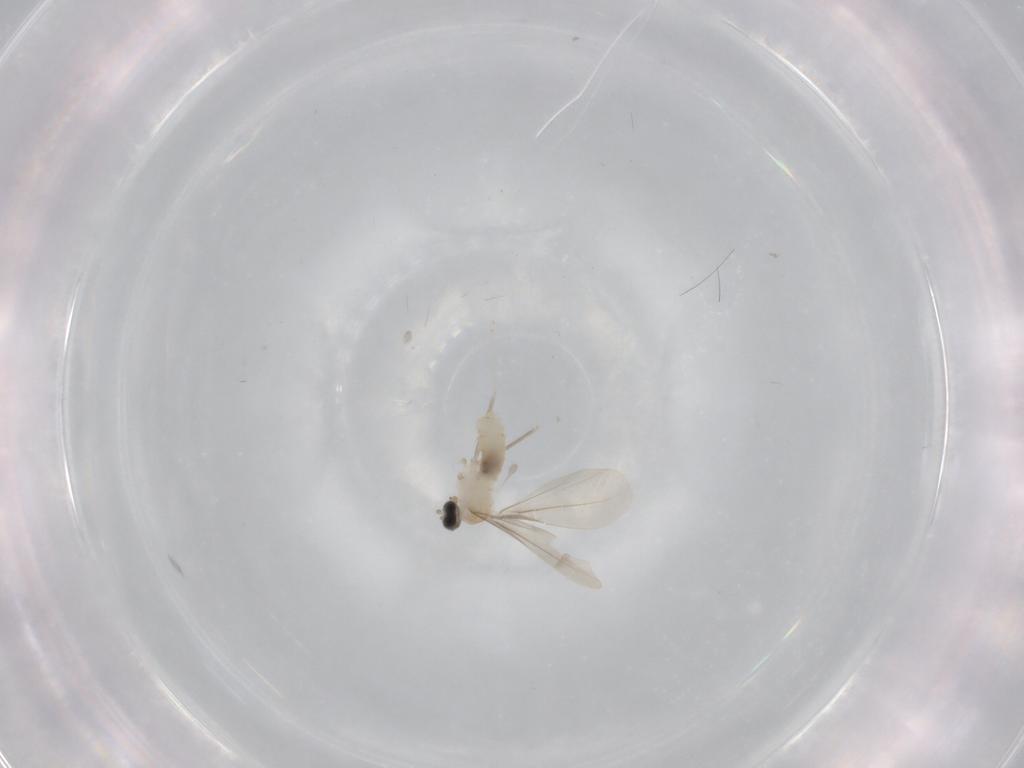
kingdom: Animalia
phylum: Arthropoda
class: Insecta
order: Diptera
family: Cecidomyiidae
